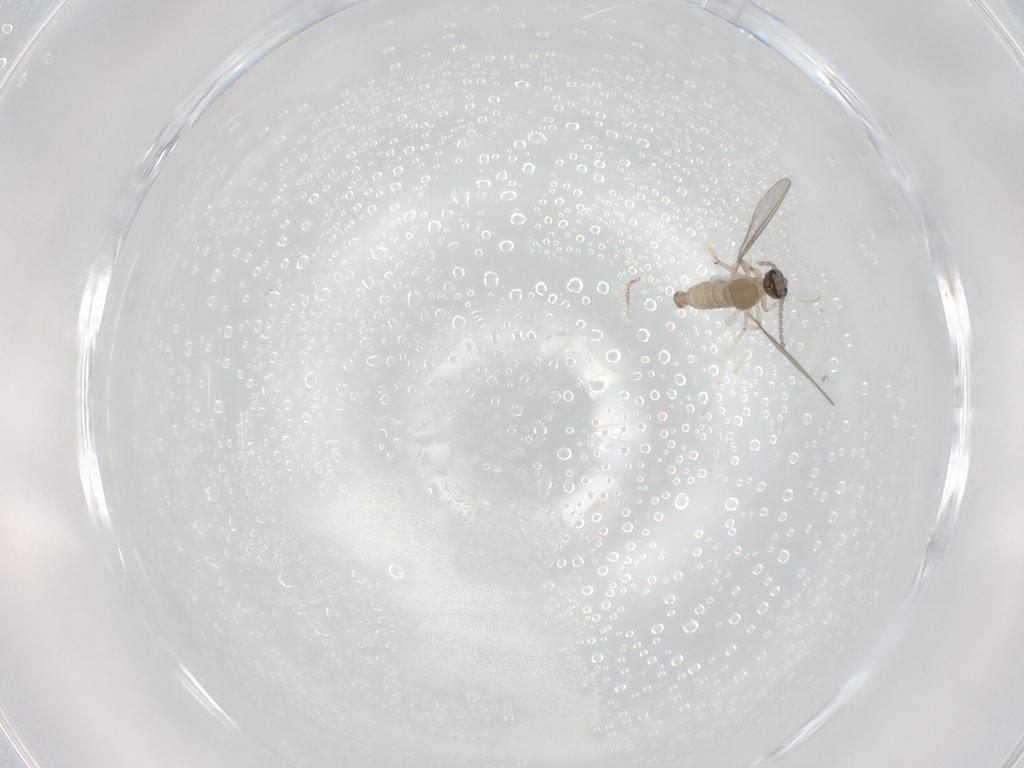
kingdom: Animalia
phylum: Arthropoda
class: Insecta
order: Diptera
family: Cecidomyiidae
